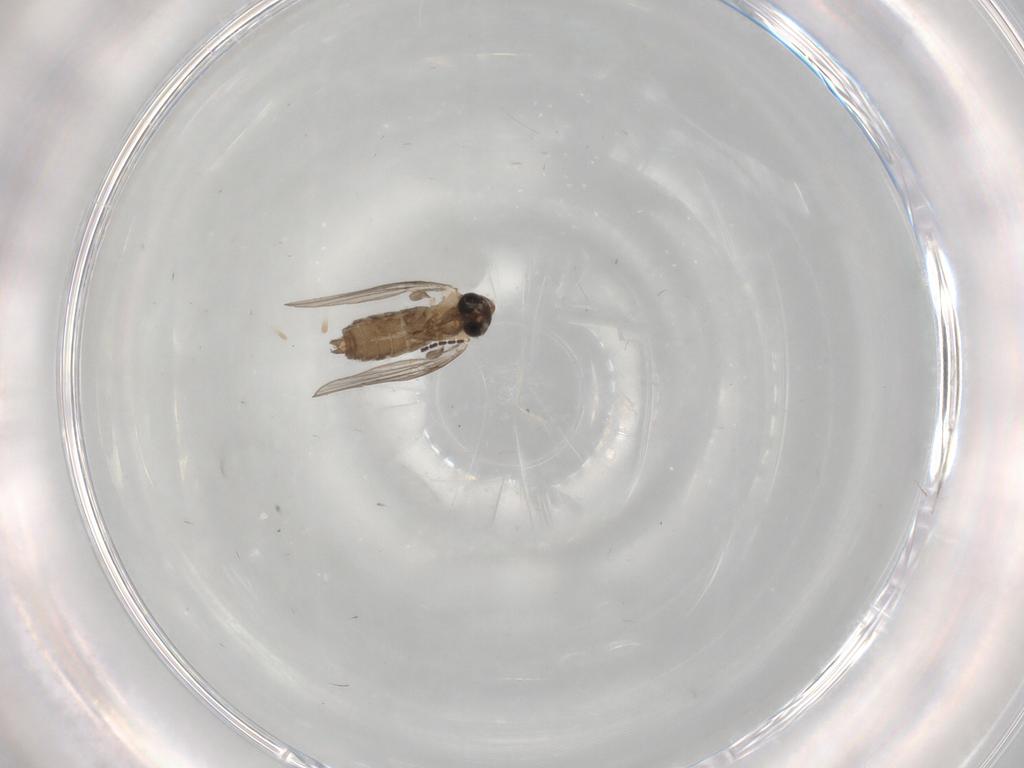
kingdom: Animalia
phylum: Arthropoda
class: Insecta
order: Diptera
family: Psychodidae
